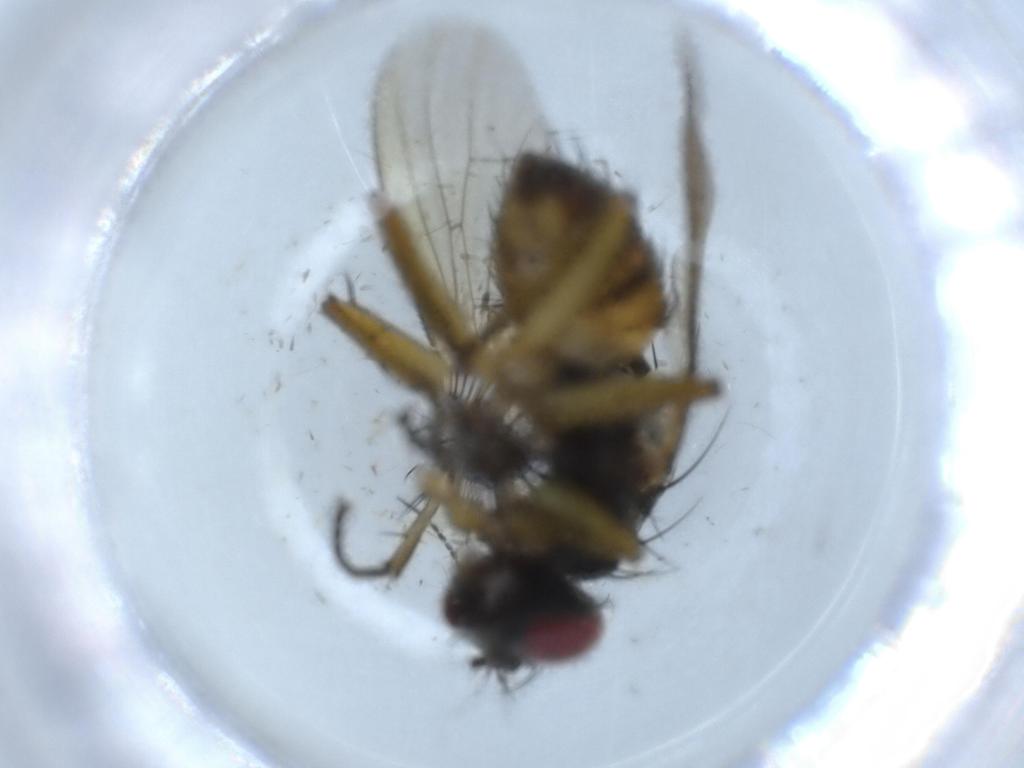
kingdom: Animalia
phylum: Arthropoda
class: Insecta
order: Diptera
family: Muscidae
